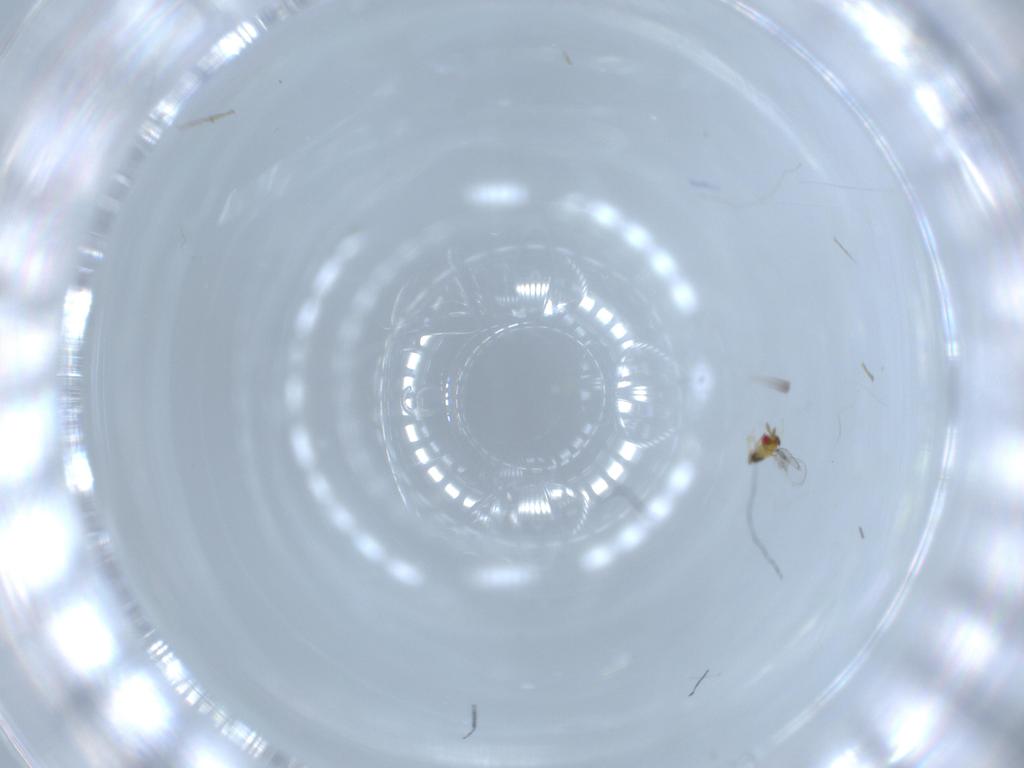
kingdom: Animalia
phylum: Arthropoda
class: Insecta
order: Hymenoptera
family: Trichogrammatidae
